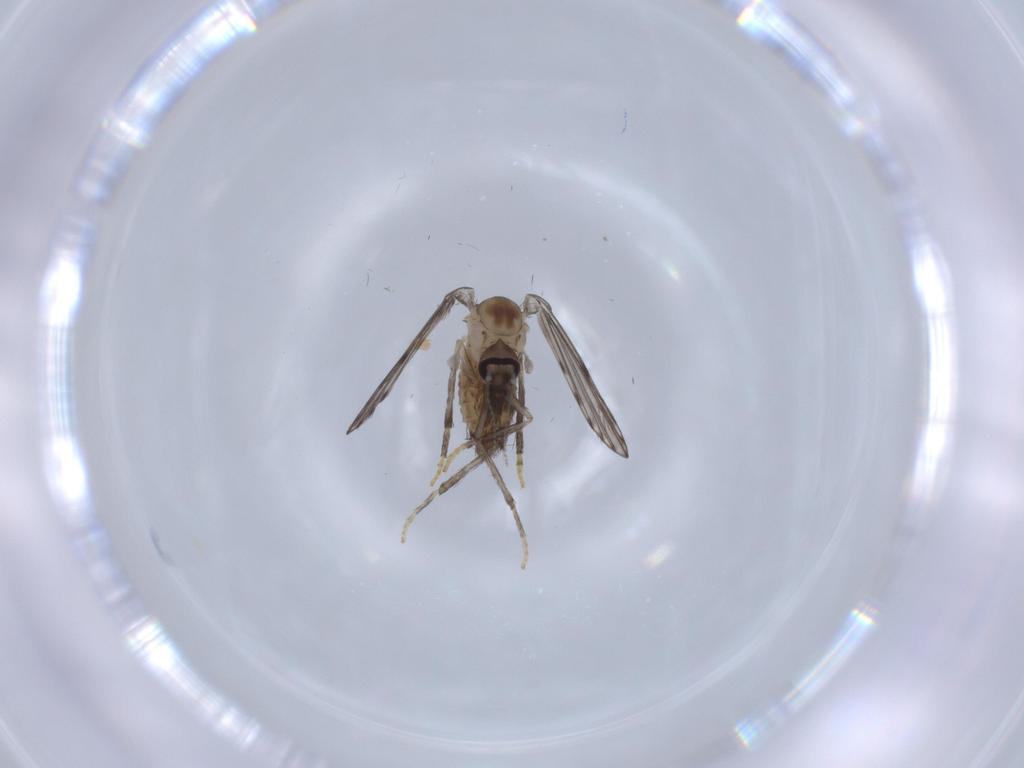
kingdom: Animalia
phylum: Arthropoda
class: Insecta
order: Diptera
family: Psychodidae
